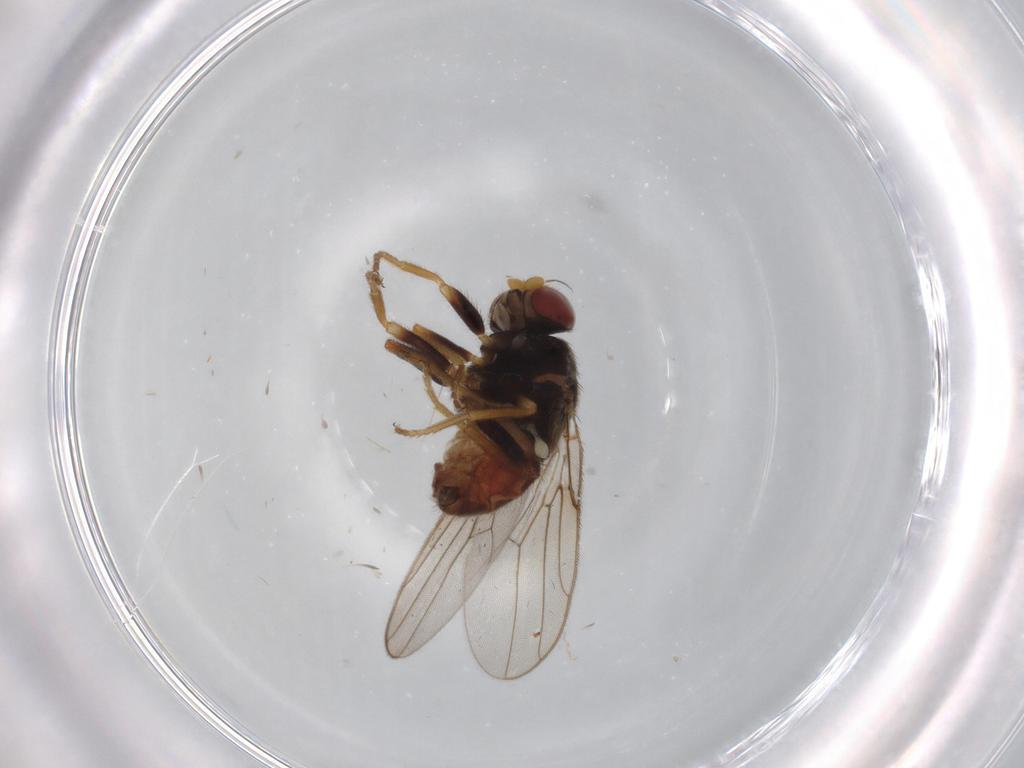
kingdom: Animalia
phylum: Arthropoda
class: Insecta
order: Diptera
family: Chloropidae
